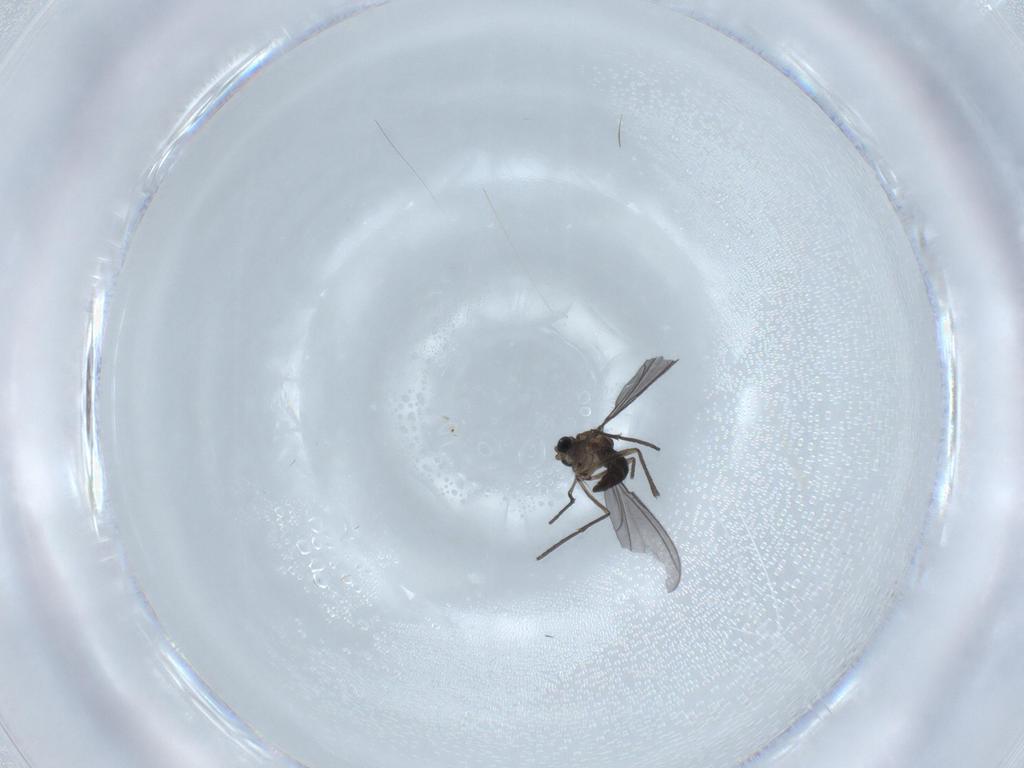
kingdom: Animalia
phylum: Arthropoda
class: Insecta
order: Diptera
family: Sciaridae
